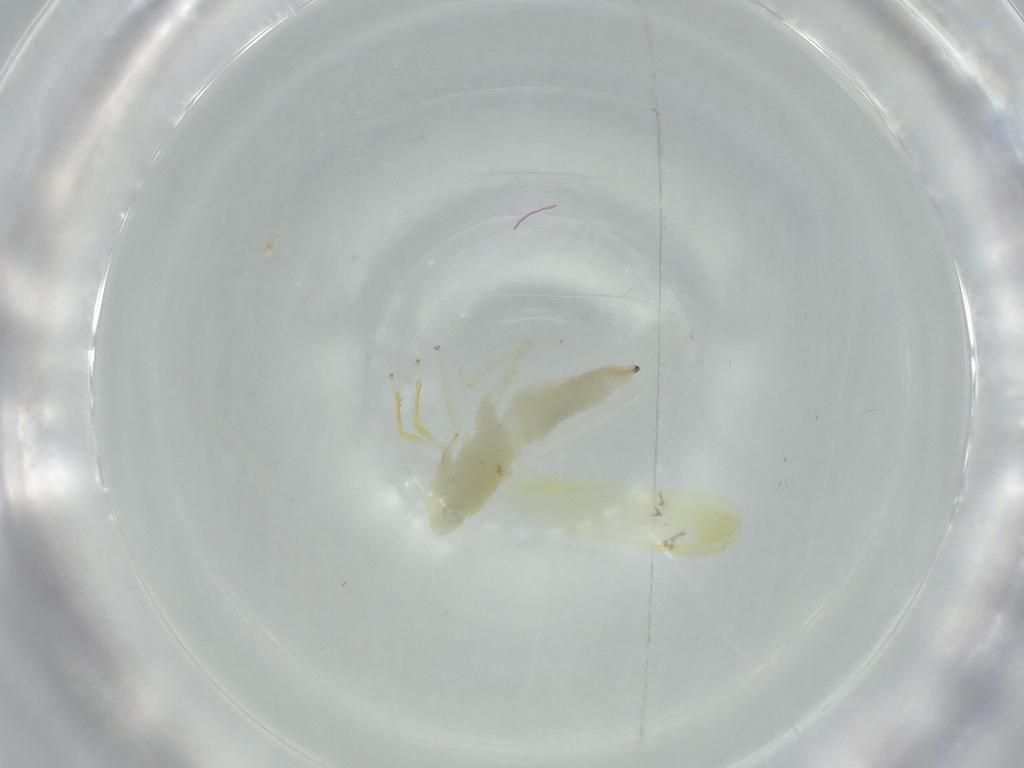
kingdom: Animalia
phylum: Arthropoda
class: Insecta
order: Hemiptera
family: Cicadellidae
